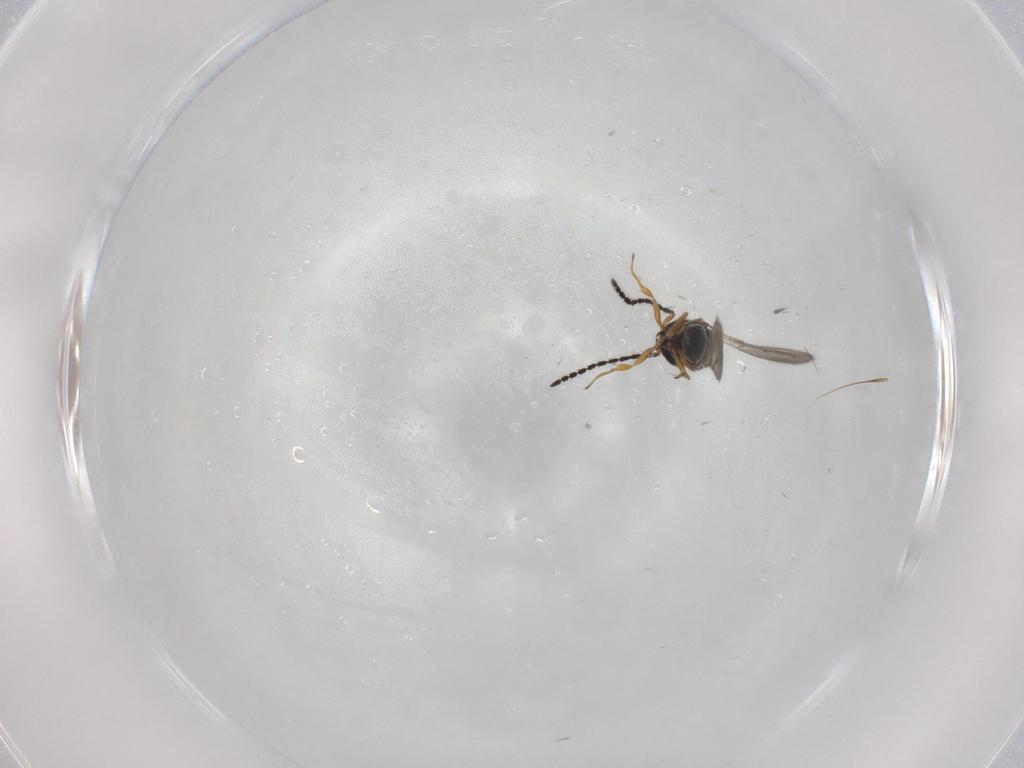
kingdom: Animalia
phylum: Arthropoda
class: Insecta
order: Hymenoptera
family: Scelionidae
